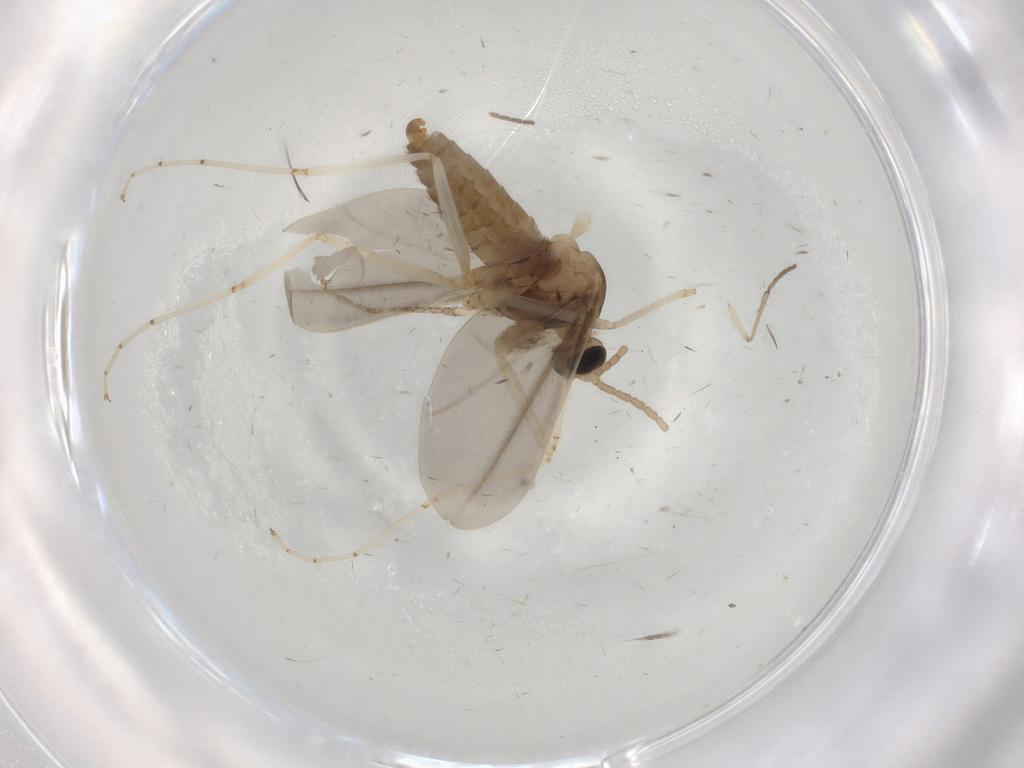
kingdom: Animalia
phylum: Arthropoda
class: Insecta
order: Diptera
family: Cecidomyiidae
